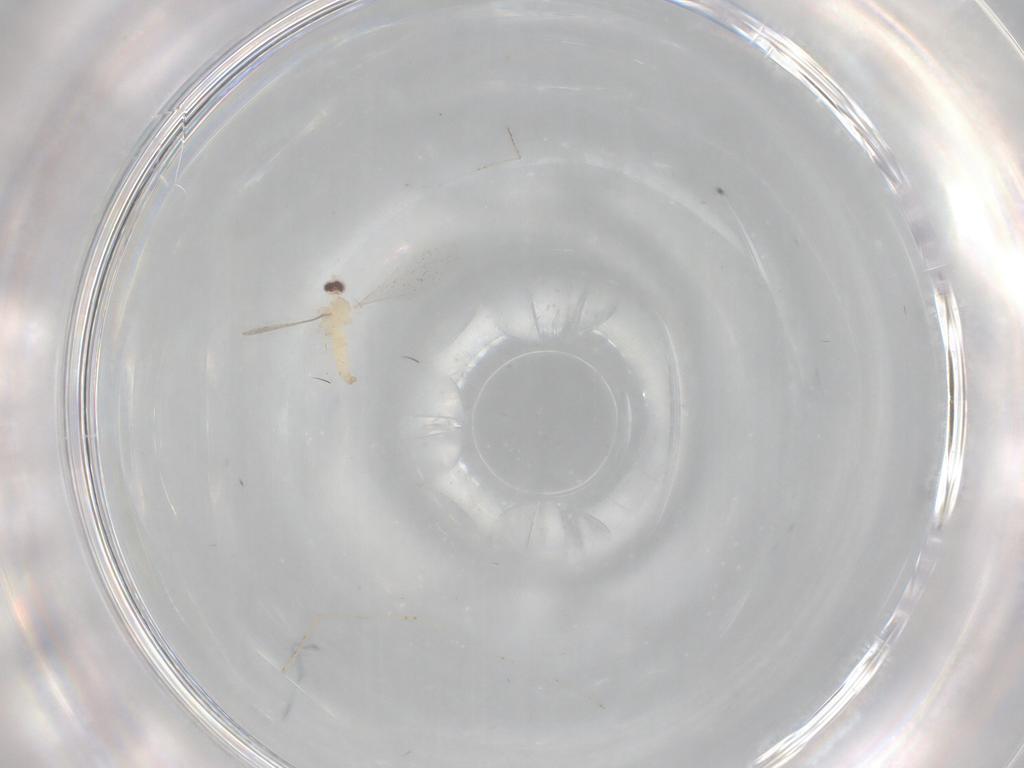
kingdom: Animalia
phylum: Arthropoda
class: Insecta
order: Diptera
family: Cecidomyiidae
